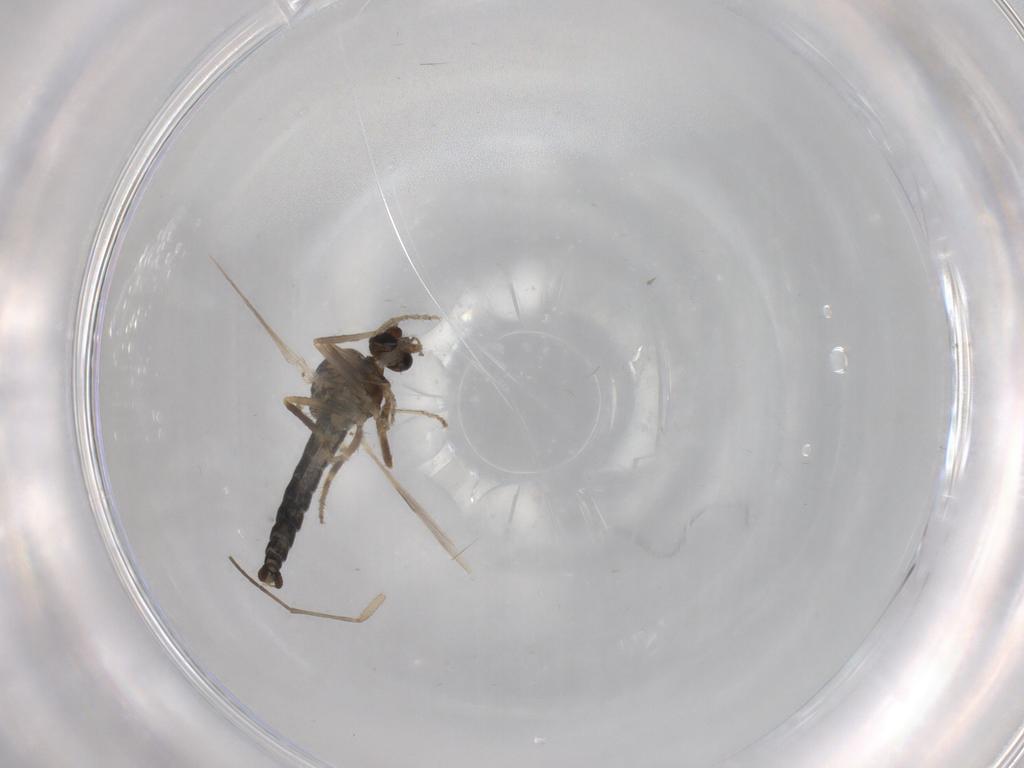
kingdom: Animalia
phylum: Arthropoda
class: Insecta
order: Diptera
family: Ceratopogonidae
